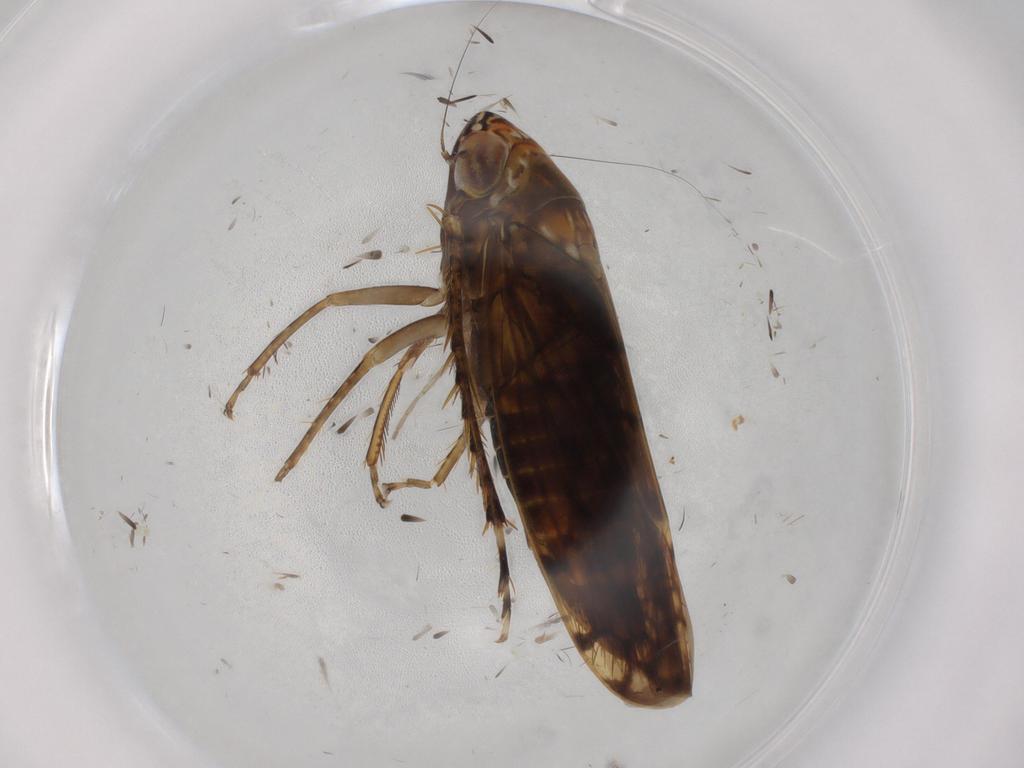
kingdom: Animalia
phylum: Arthropoda
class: Insecta
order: Hemiptera
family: Cicadellidae
